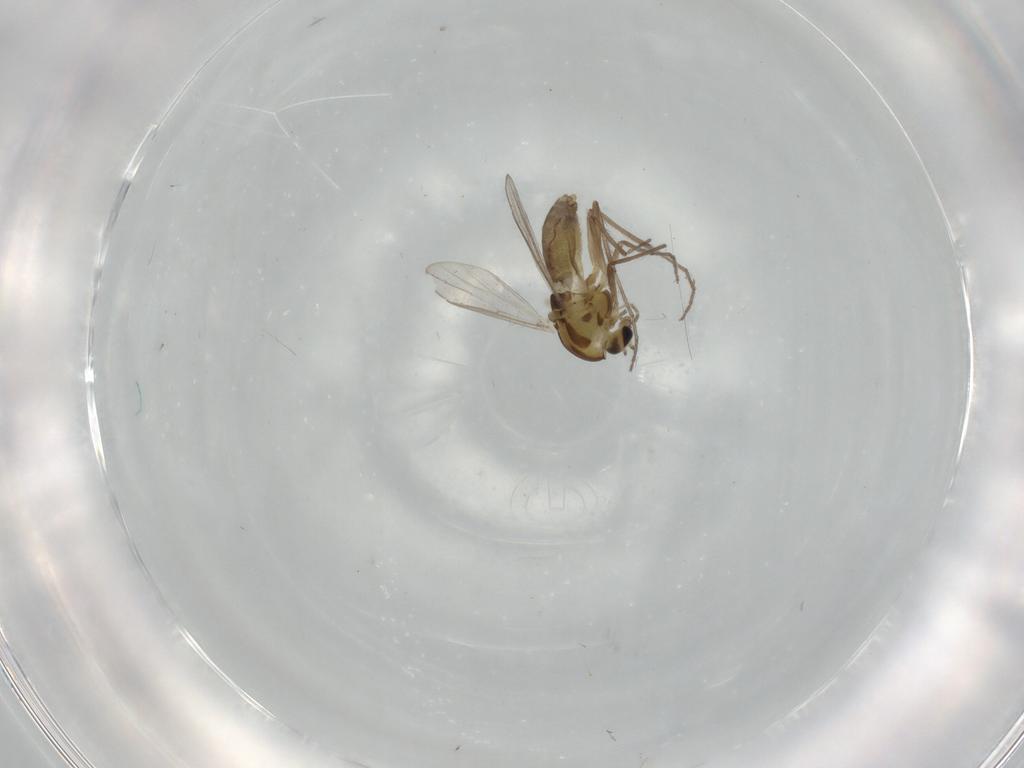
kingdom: Animalia
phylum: Arthropoda
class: Insecta
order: Diptera
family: Chironomidae
